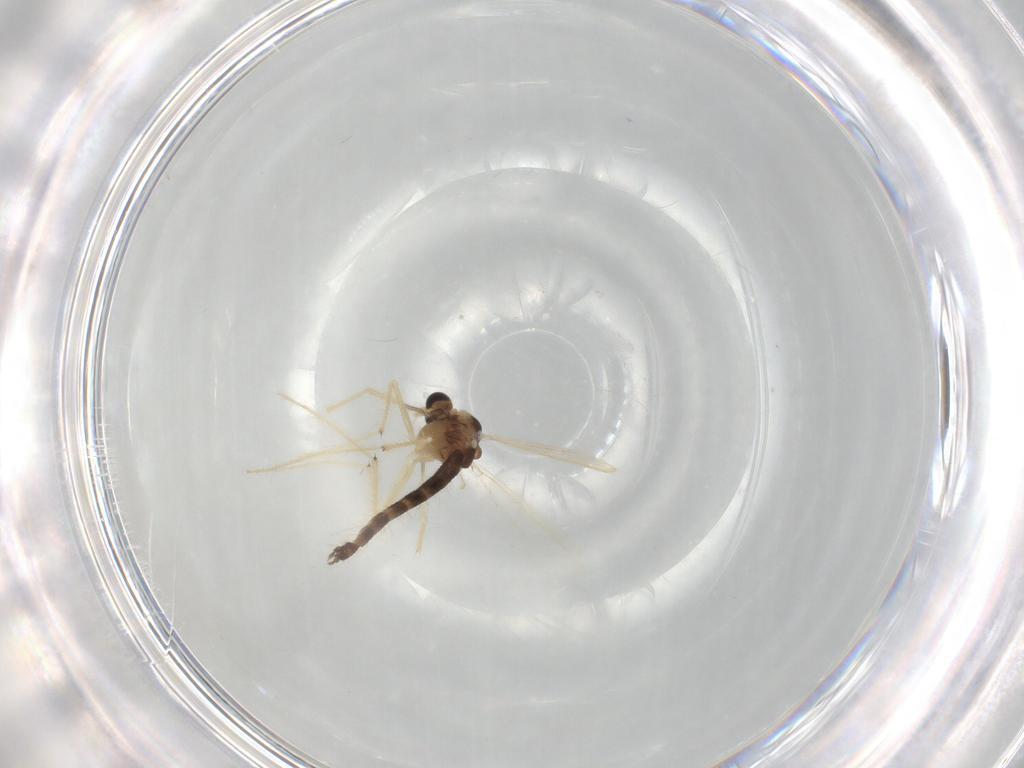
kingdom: Animalia
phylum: Arthropoda
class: Insecta
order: Diptera
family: Chironomidae
